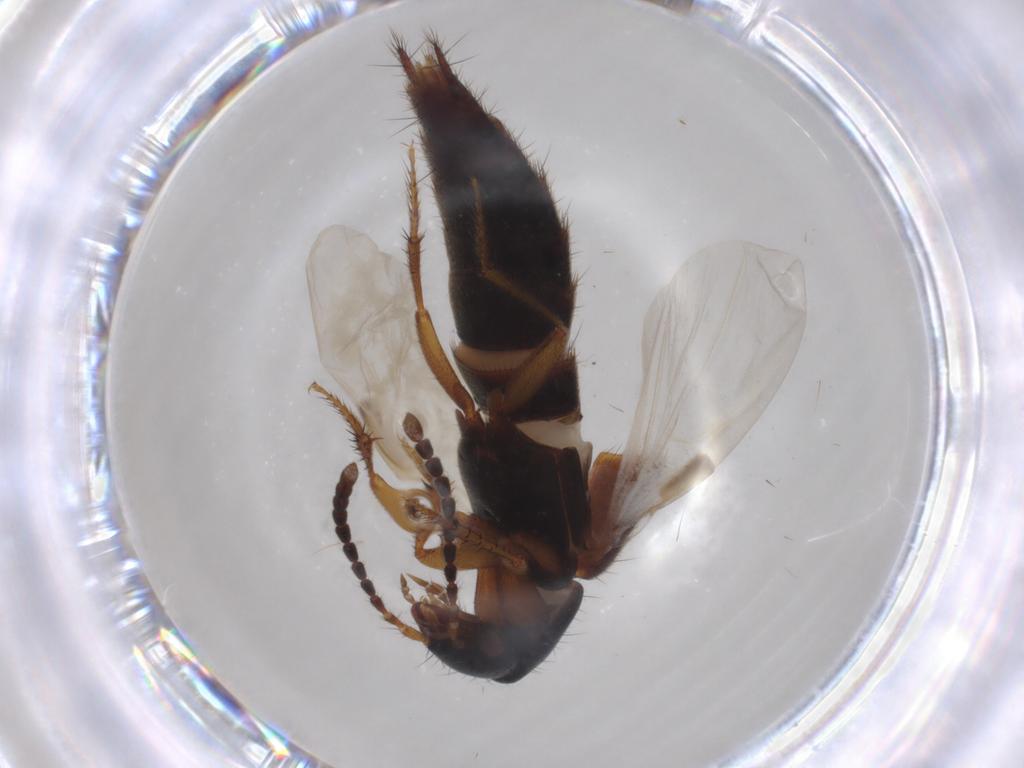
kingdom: Animalia
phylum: Arthropoda
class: Insecta
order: Coleoptera
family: Staphylinidae
